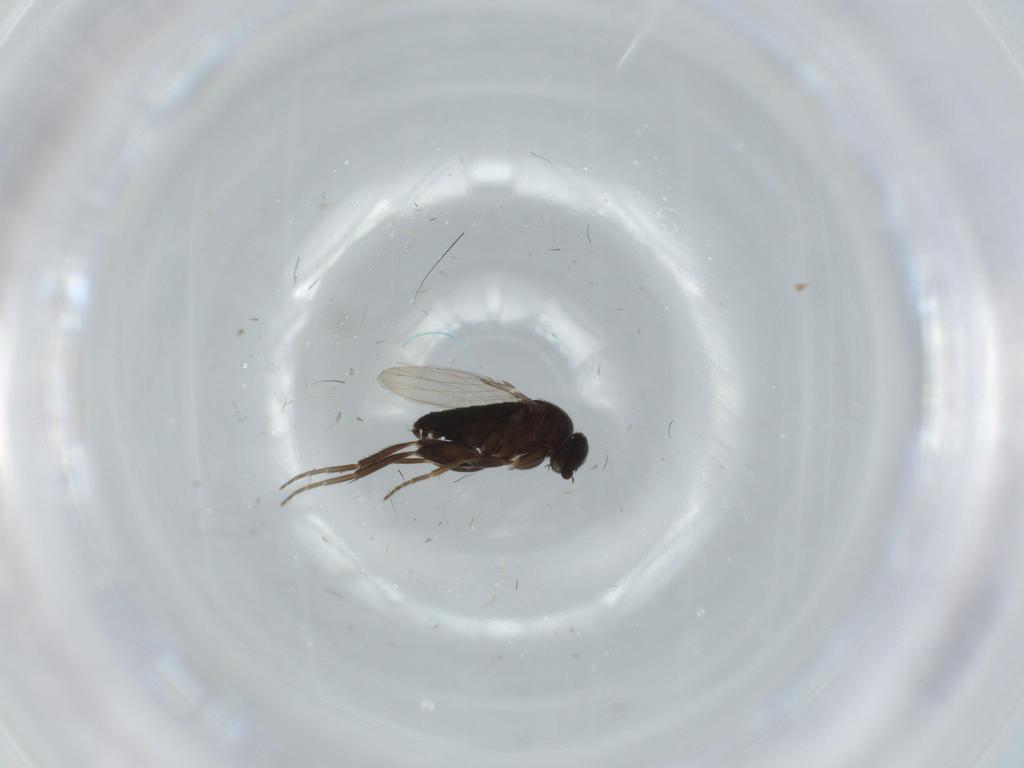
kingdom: Animalia
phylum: Arthropoda
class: Insecta
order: Diptera
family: Phoridae
